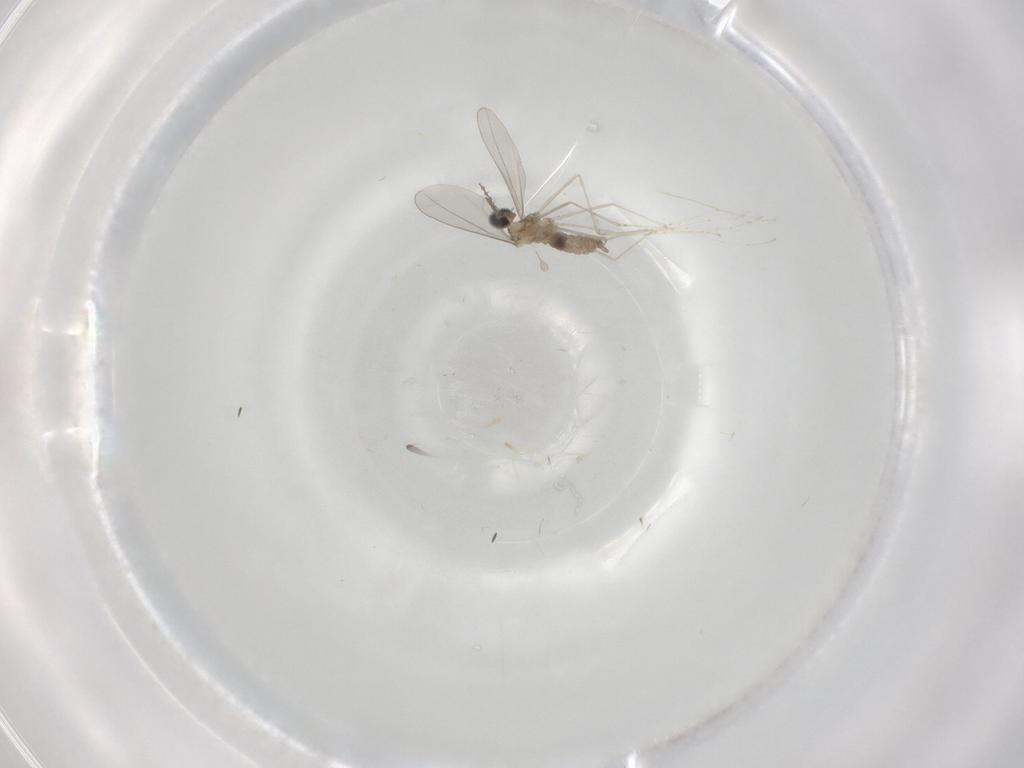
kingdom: Animalia
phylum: Arthropoda
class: Insecta
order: Diptera
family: Cecidomyiidae
